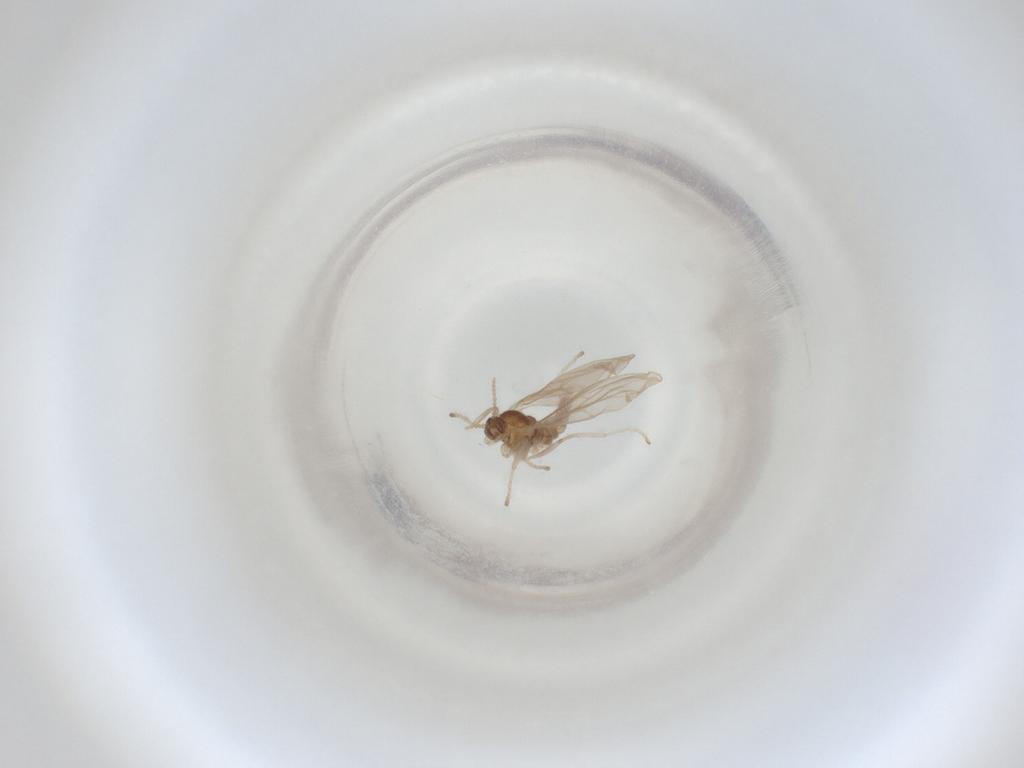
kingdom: Animalia
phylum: Arthropoda
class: Insecta
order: Diptera
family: Cecidomyiidae
